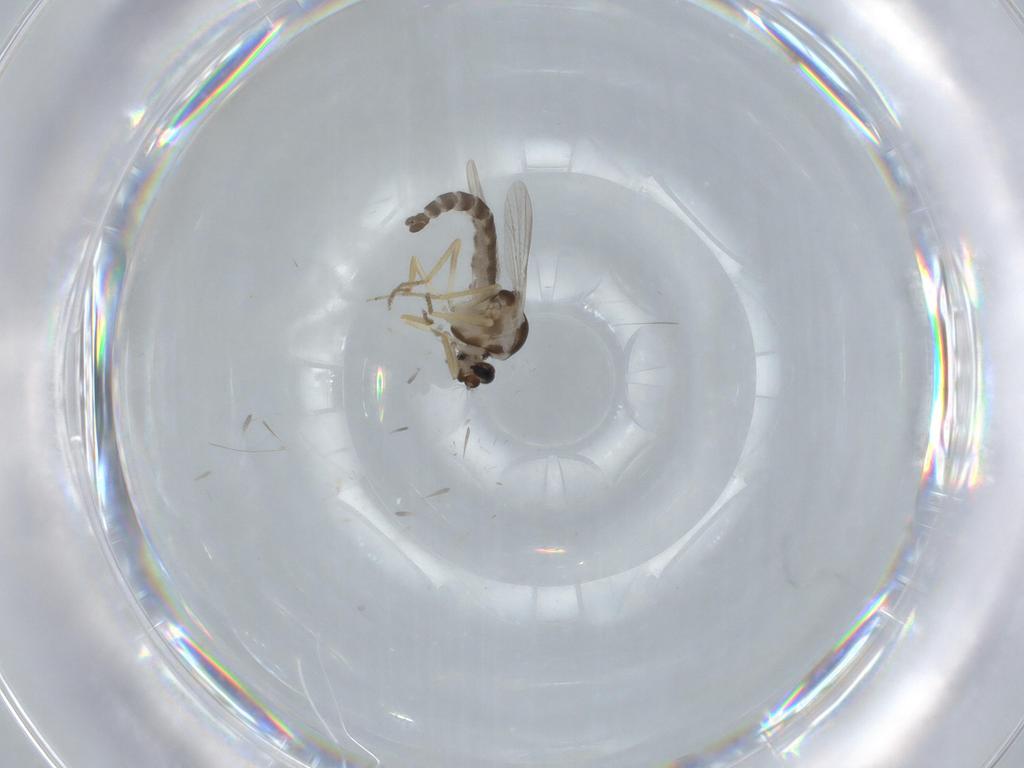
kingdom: Animalia
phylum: Arthropoda
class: Insecta
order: Diptera
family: Ceratopogonidae
